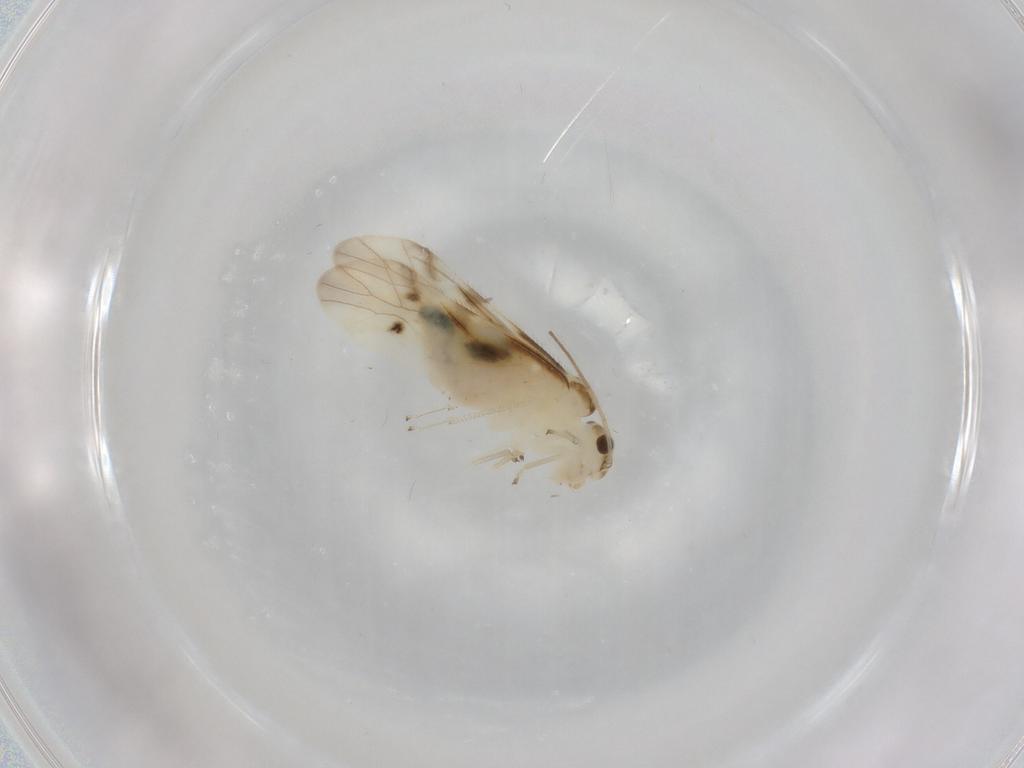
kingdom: Animalia
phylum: Arthropoda
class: Insecta
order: Psocodea
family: Caeciliusidae
